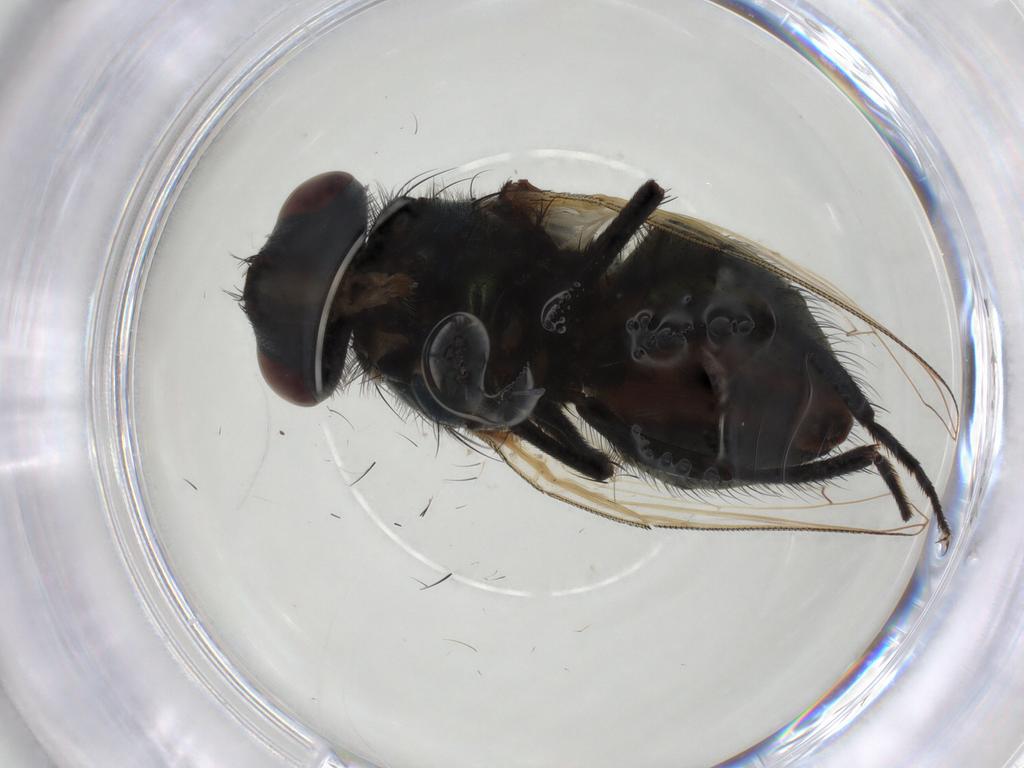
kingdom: Animalia
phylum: Arthropoda
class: Insecta
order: Diptera
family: Muscidae
